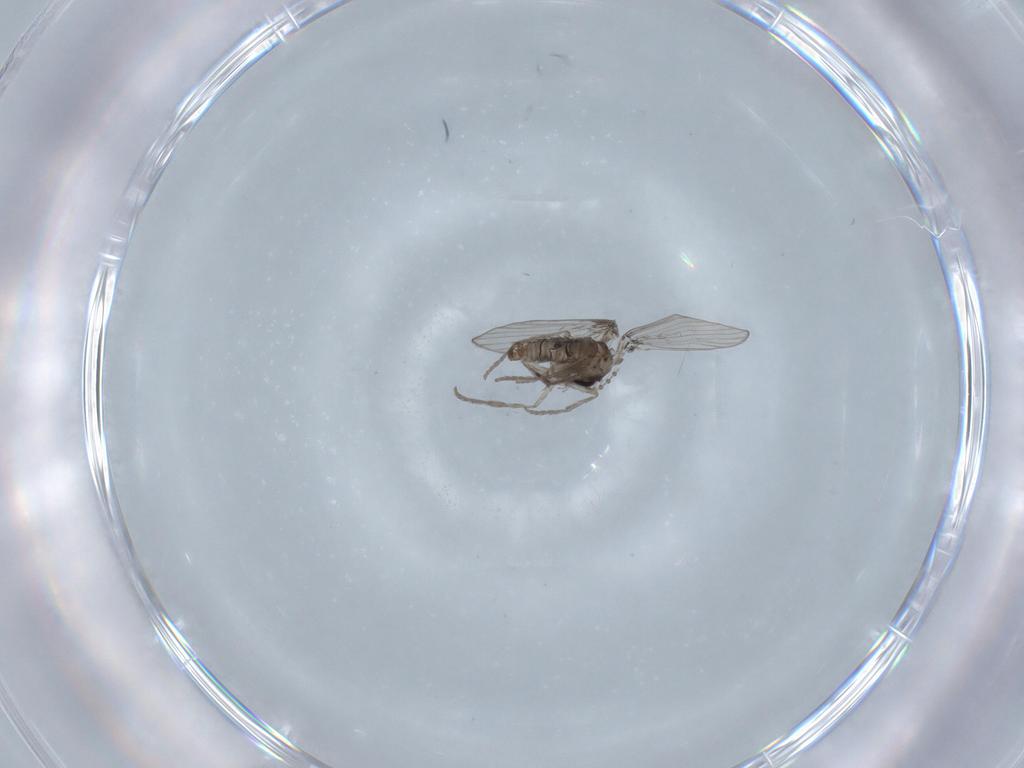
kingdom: Animalia
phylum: Arthropoda
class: Insecta
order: Diptera
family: Psychodidae
